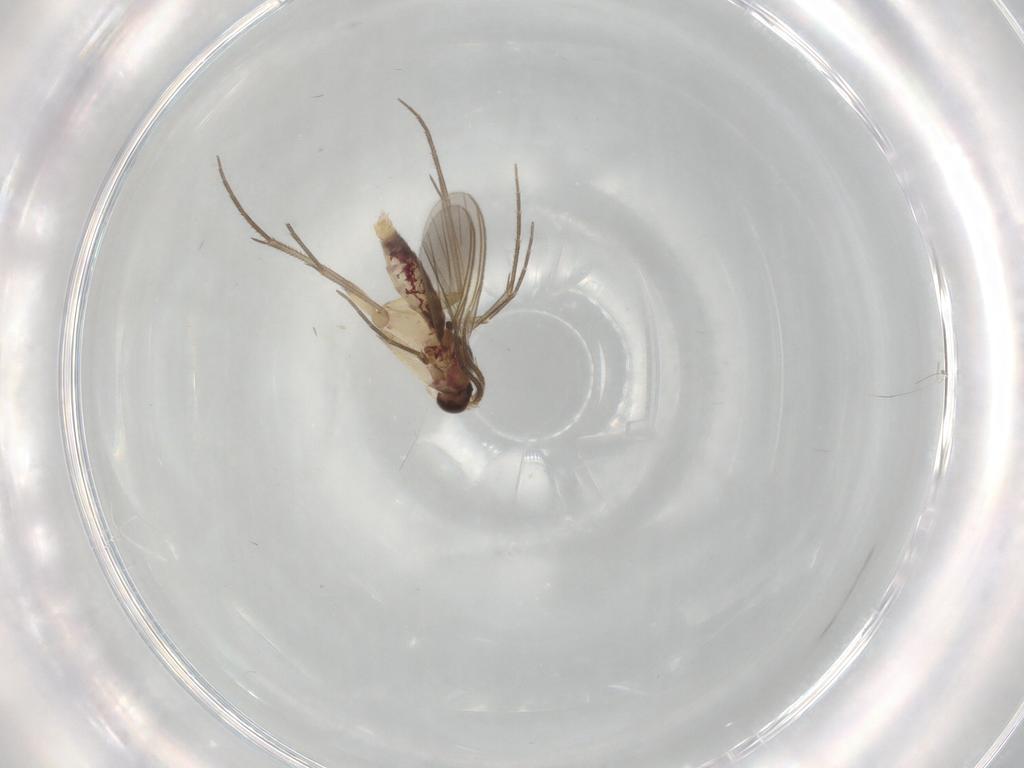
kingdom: Animalia
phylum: Arthropoda
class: Insecta
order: Diptera
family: Mycetophilidae
